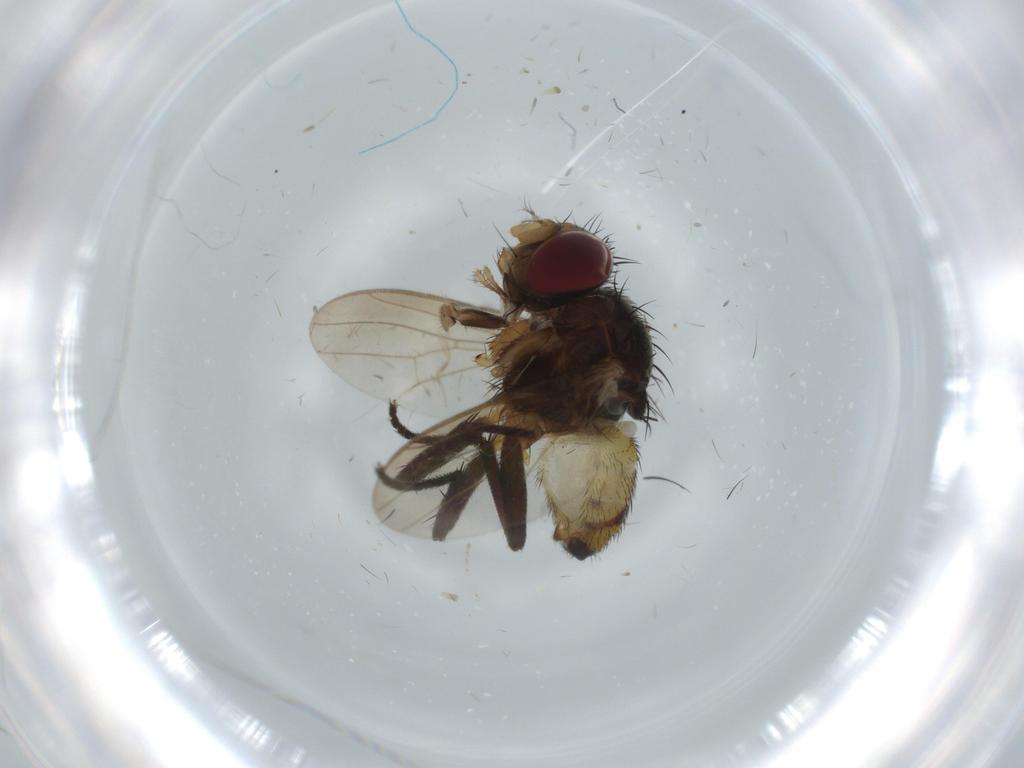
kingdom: Animalia
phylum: Arthropoda
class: Insecta
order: Diptera
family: Anthomyiidae
